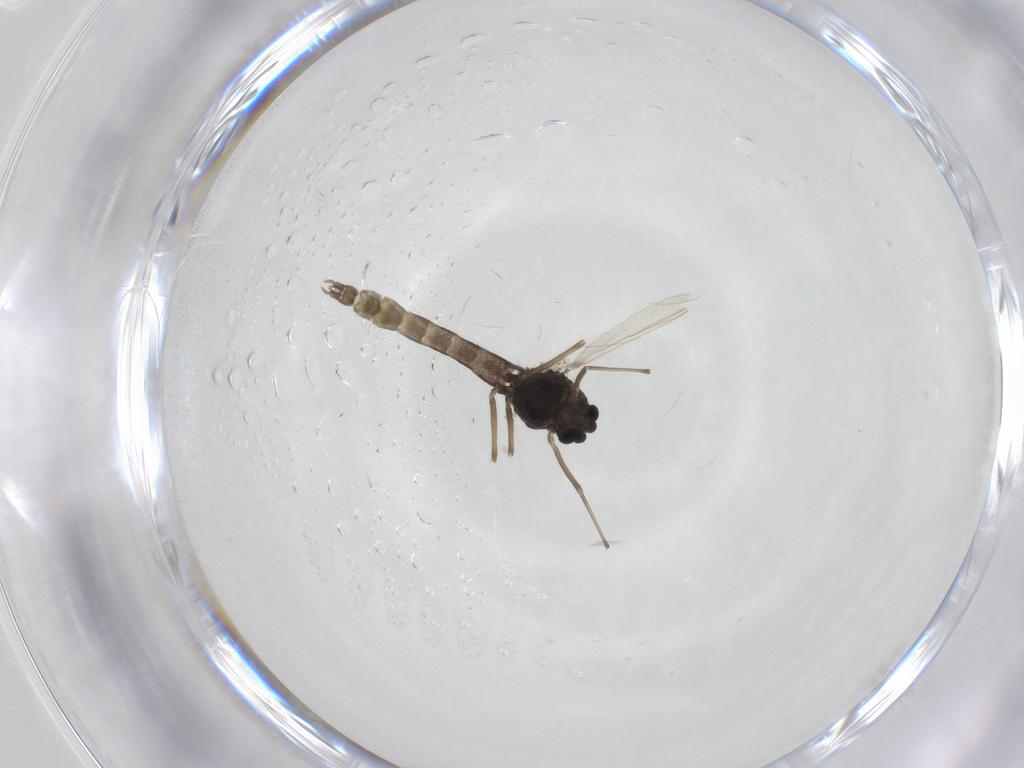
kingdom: Animalia
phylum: Arthropoda
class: Insecta
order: Diptera
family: Chironomidae
